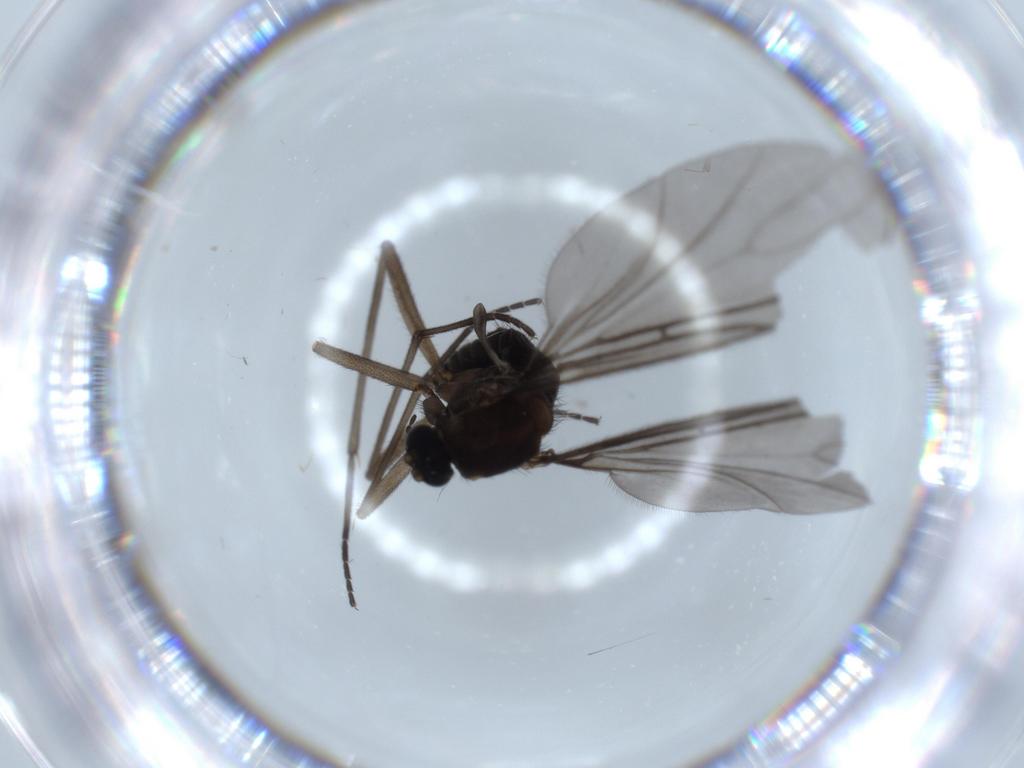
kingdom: Animalia
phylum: Arthropoda
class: Insecta
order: Diptera
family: Sciaridae
